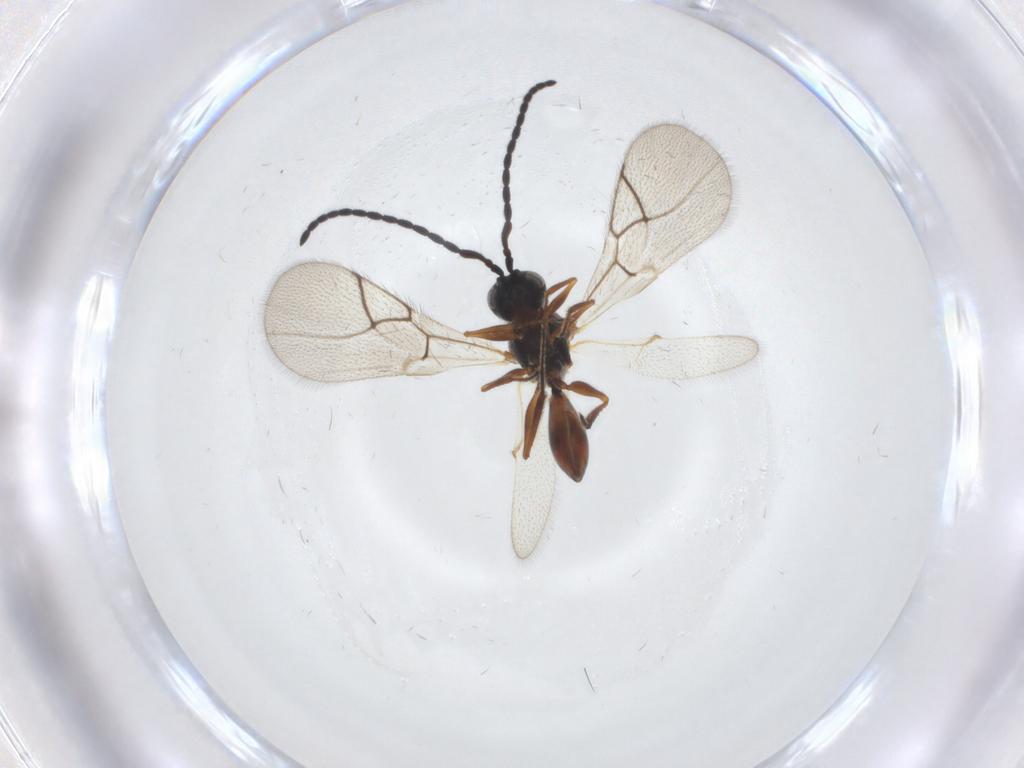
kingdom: Animalia
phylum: Arthropoda
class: Insecta
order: Hymenoptera
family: Figitidae
